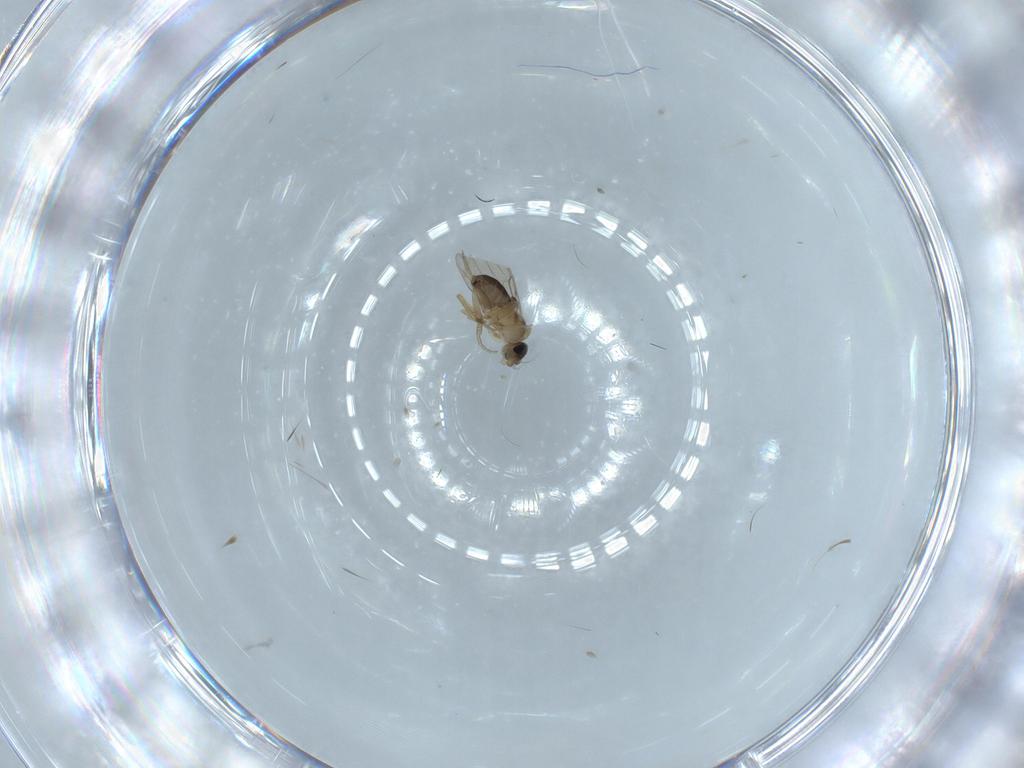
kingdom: Animalia
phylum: Arthropoda
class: Insecta
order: Diptera
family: Phoridae
